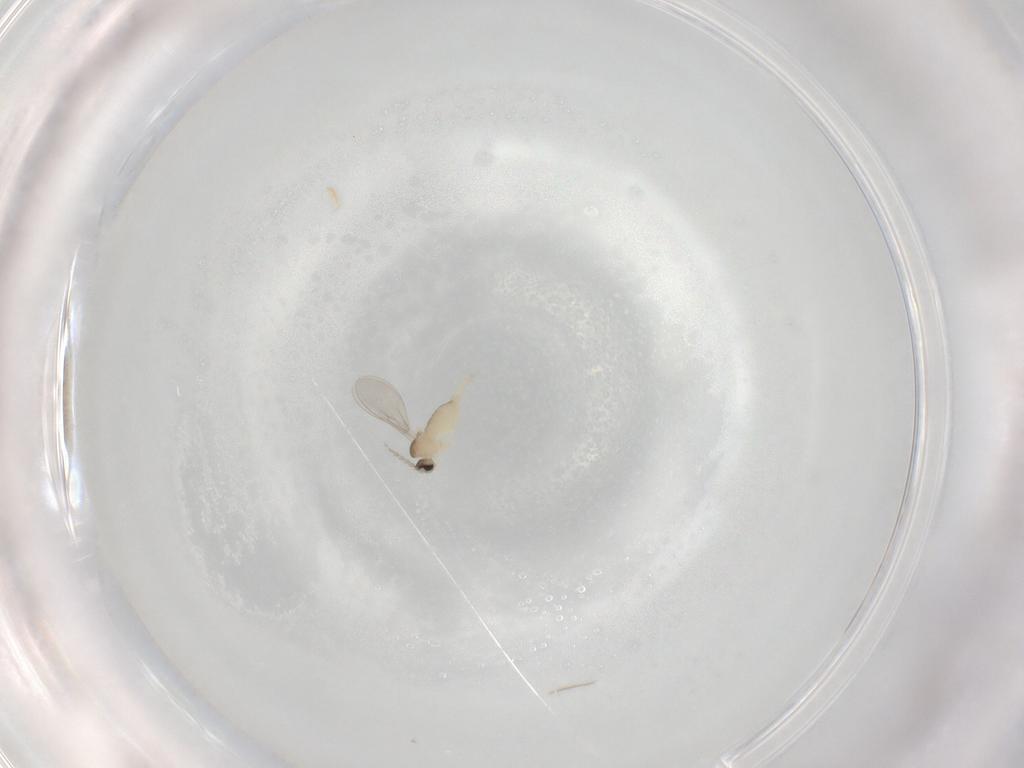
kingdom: Animalia
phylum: Arthropoda
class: Insecta
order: Diptera
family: Cecidomyiidae
